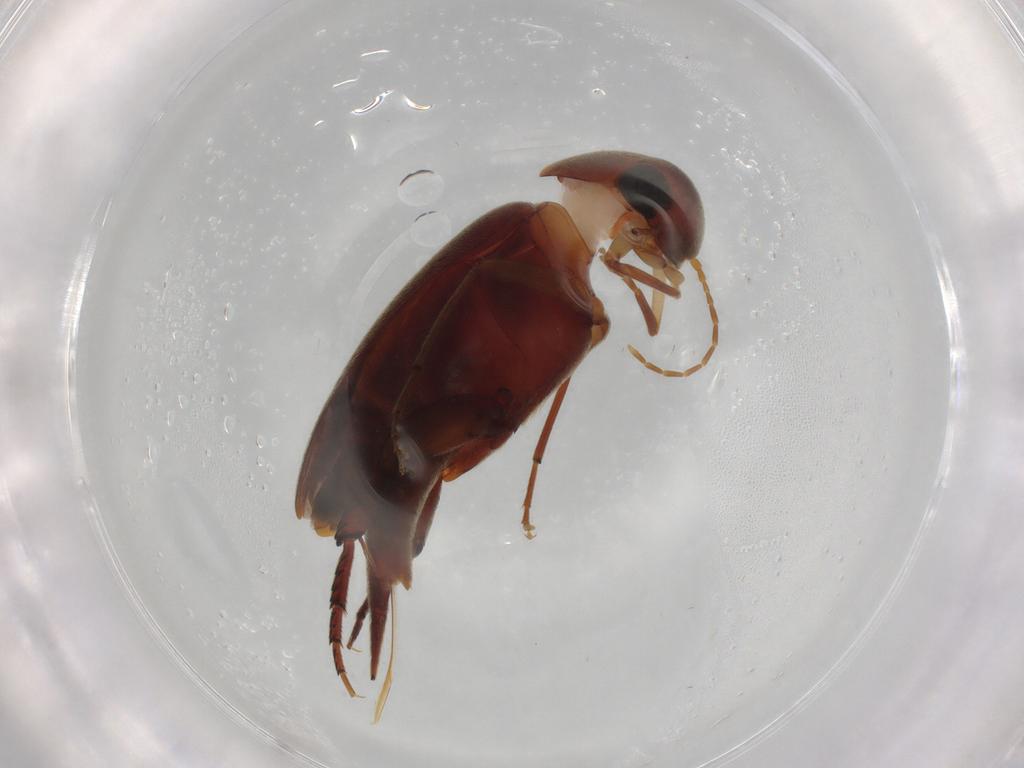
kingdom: Animalia
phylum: Arthropoda
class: Insecta
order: Coleoptera
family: Mordellidae
